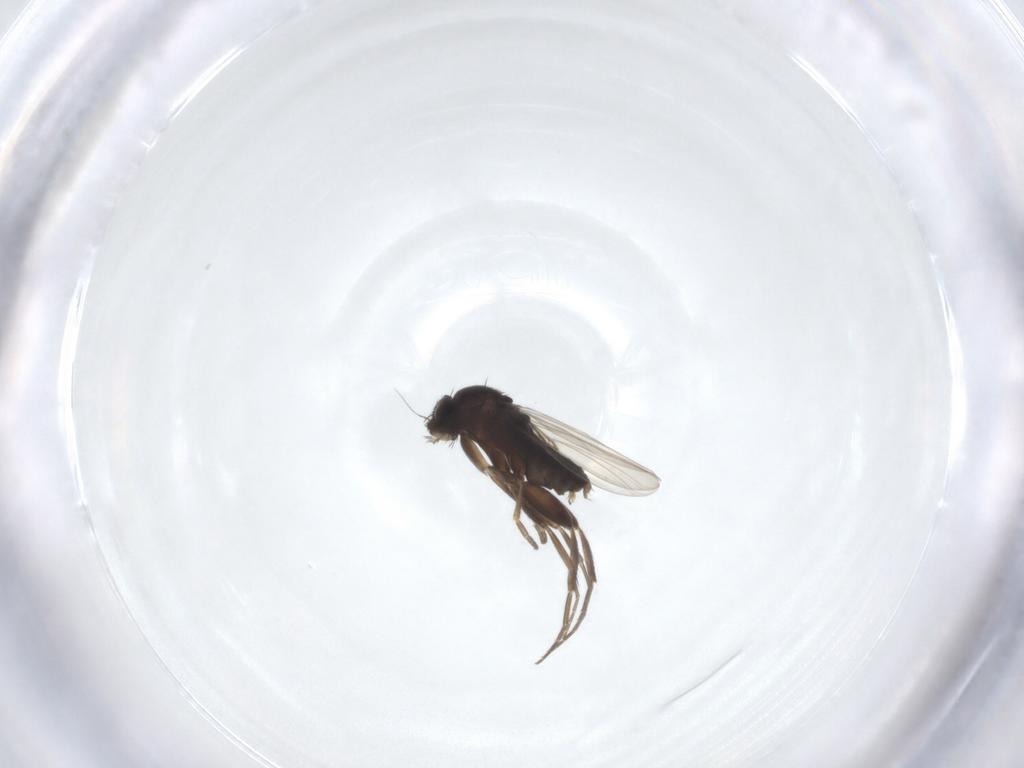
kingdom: Animalia
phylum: Arthropoda
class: Insecta
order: Diptera
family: Phoridae
